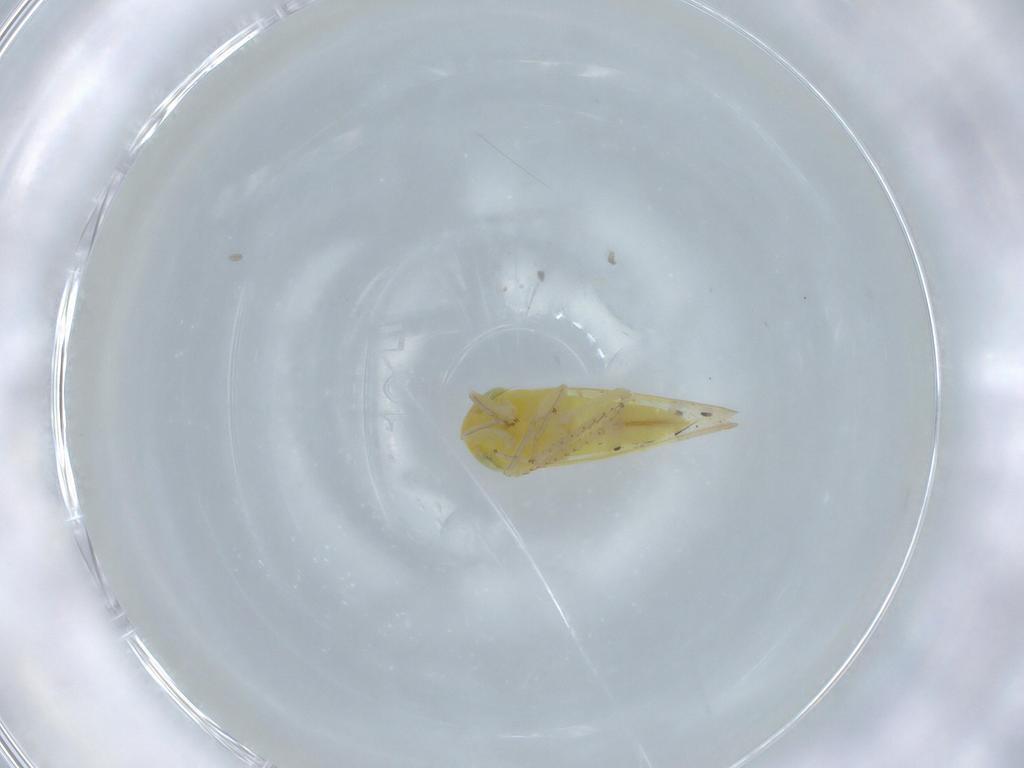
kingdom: Animalia
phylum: Arthropoda
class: Insecta
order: Hemiptera
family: Cicadellidae
